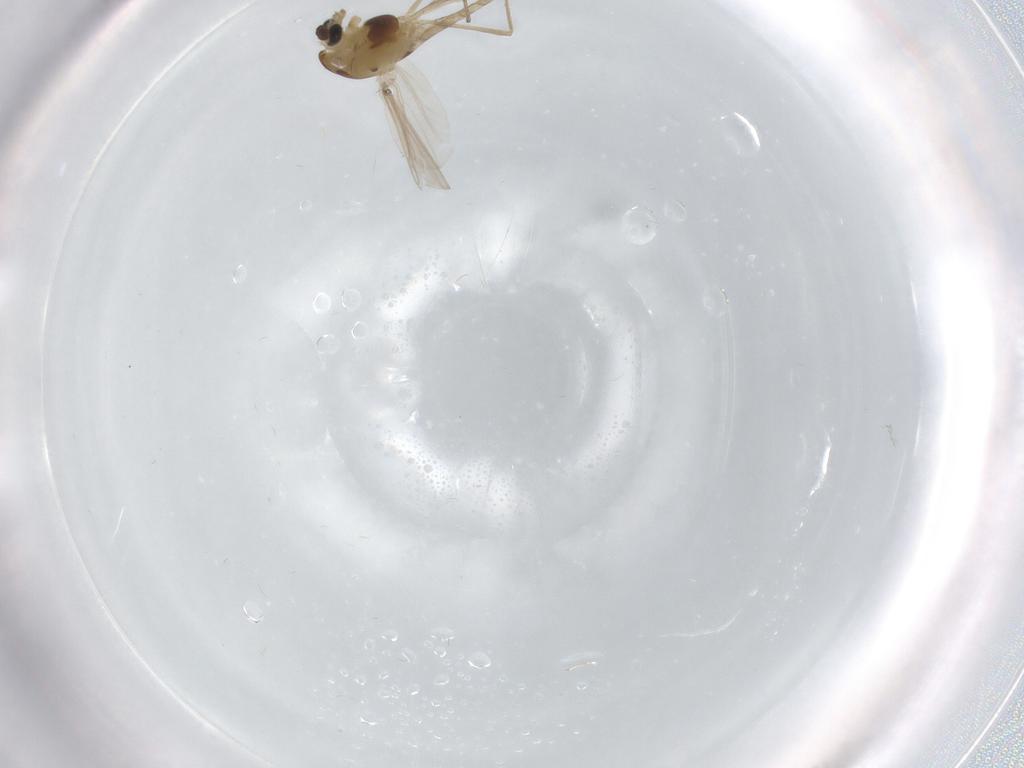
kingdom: Animalia
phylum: Arthropoda
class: Insecta
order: Diptera
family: Chironomidae
